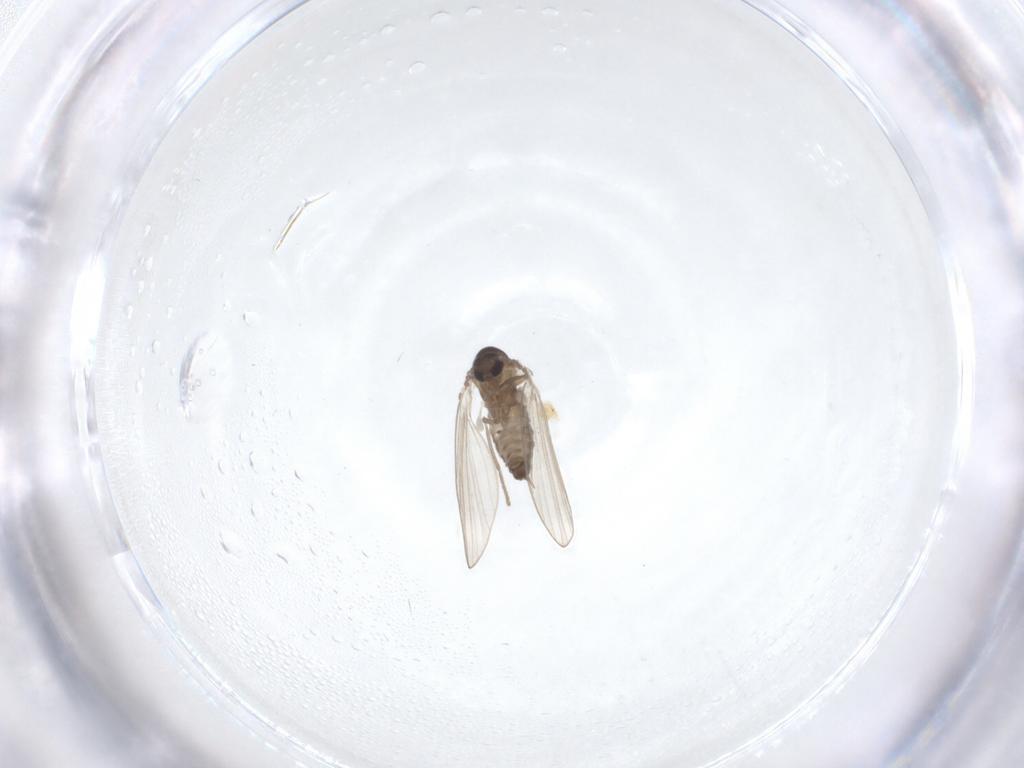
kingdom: Animalia
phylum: Arthropoda
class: Insecta
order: Diptera
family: Psychodidae
